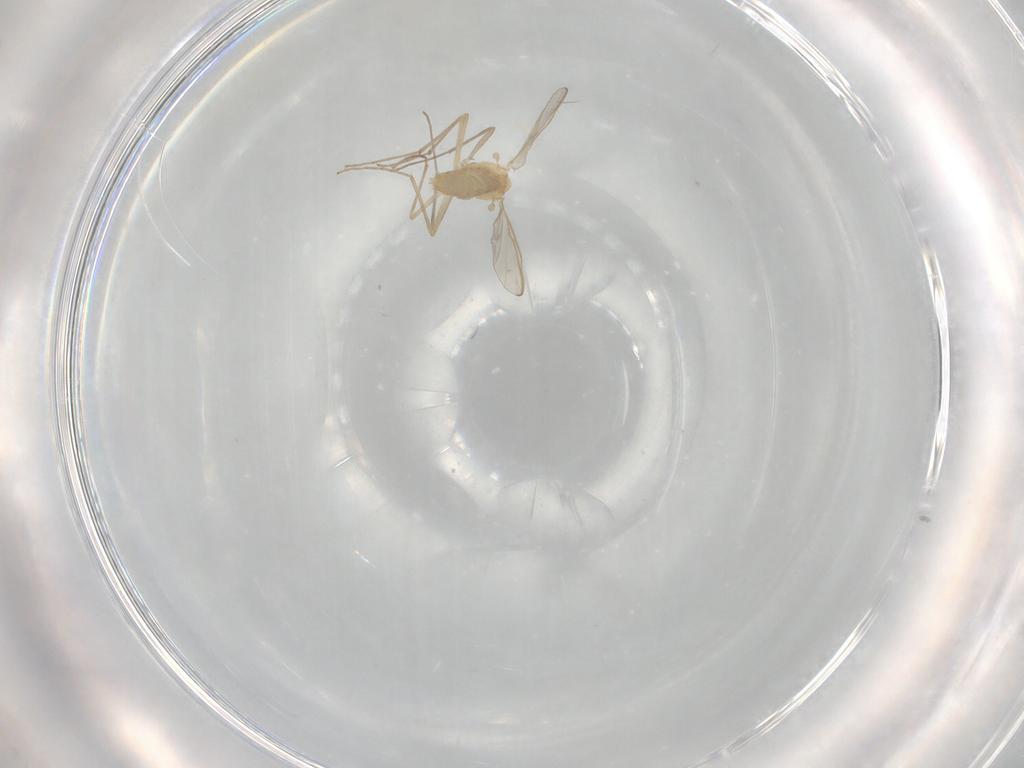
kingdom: Animalia
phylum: Arthropoda
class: Insecta
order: Diptera
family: Chironomidae
